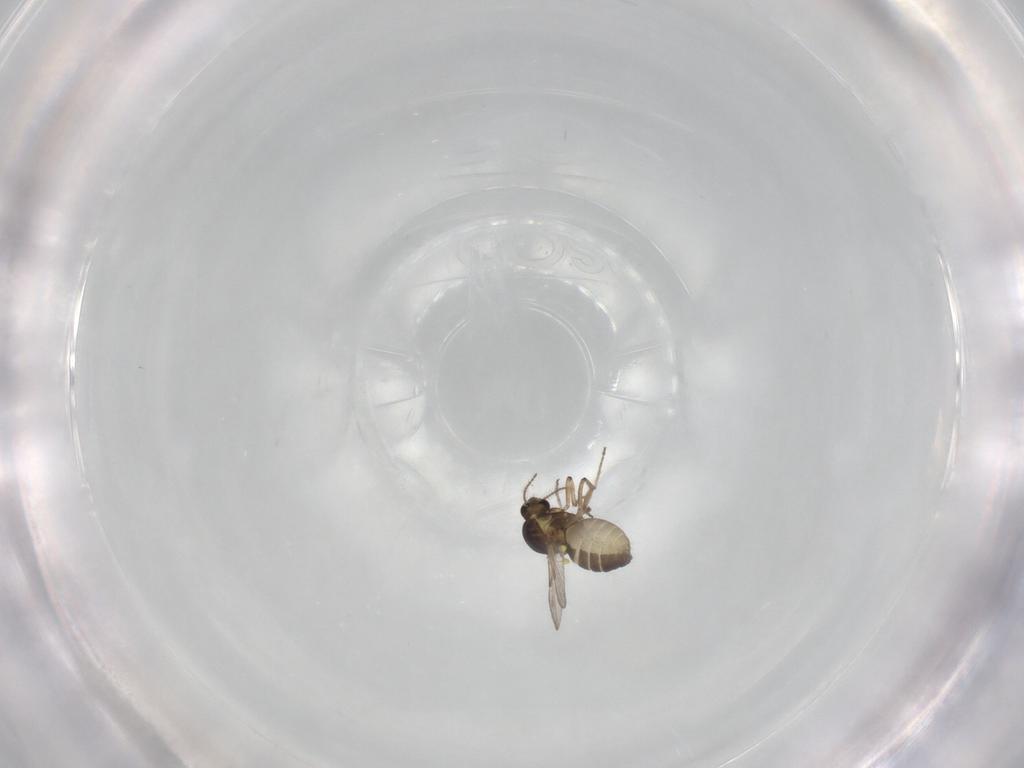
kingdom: Animalia
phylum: Arthropoda
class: Insecta
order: Diptera
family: Ceratopogonidae
